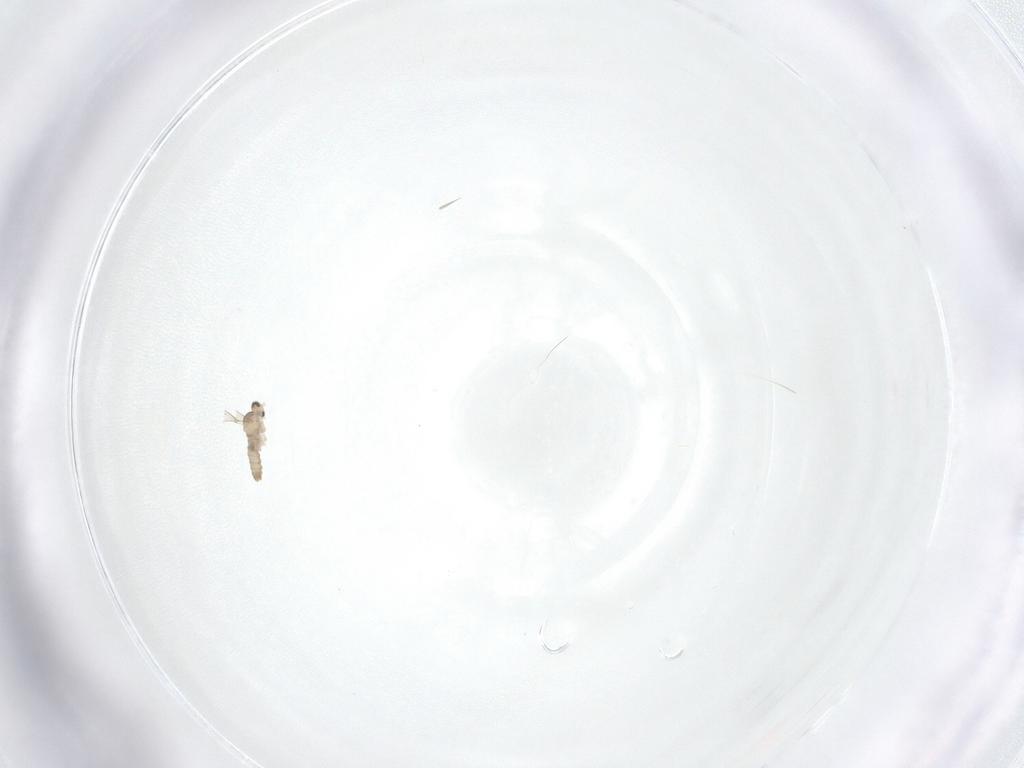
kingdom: Animalia
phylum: Arthropoda
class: Insecta
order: Diptera
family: Cecidomyiidae
